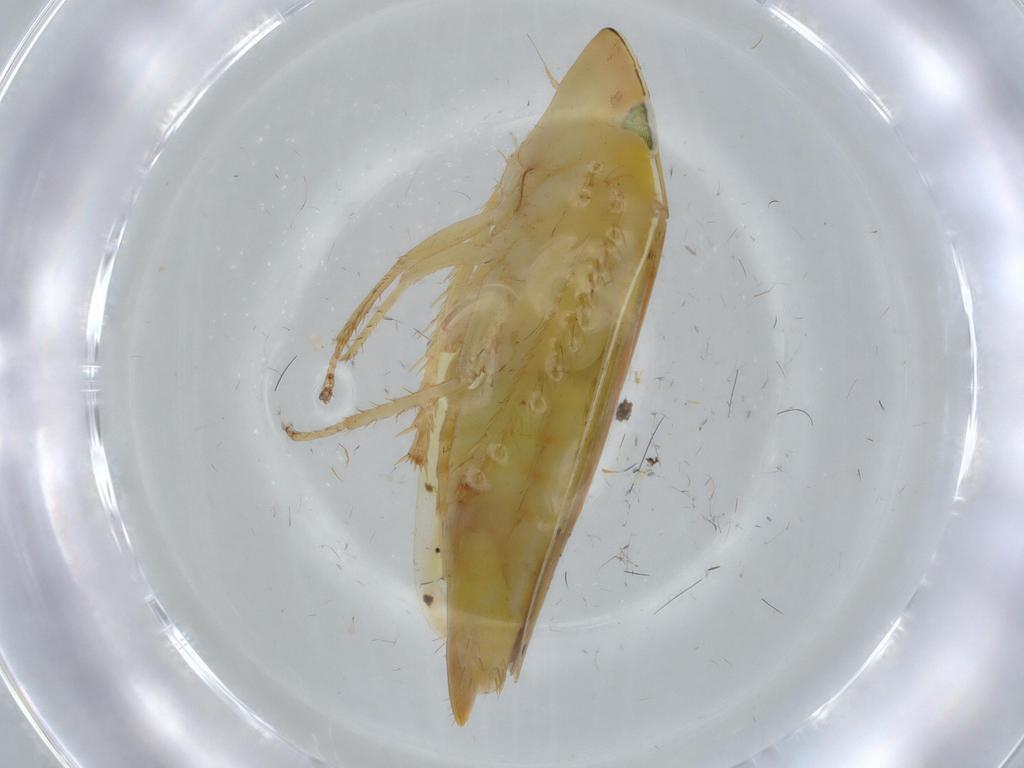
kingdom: Animalia
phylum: Arthropoda
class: Insecta
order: Hemiptera
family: Cicadellidae
